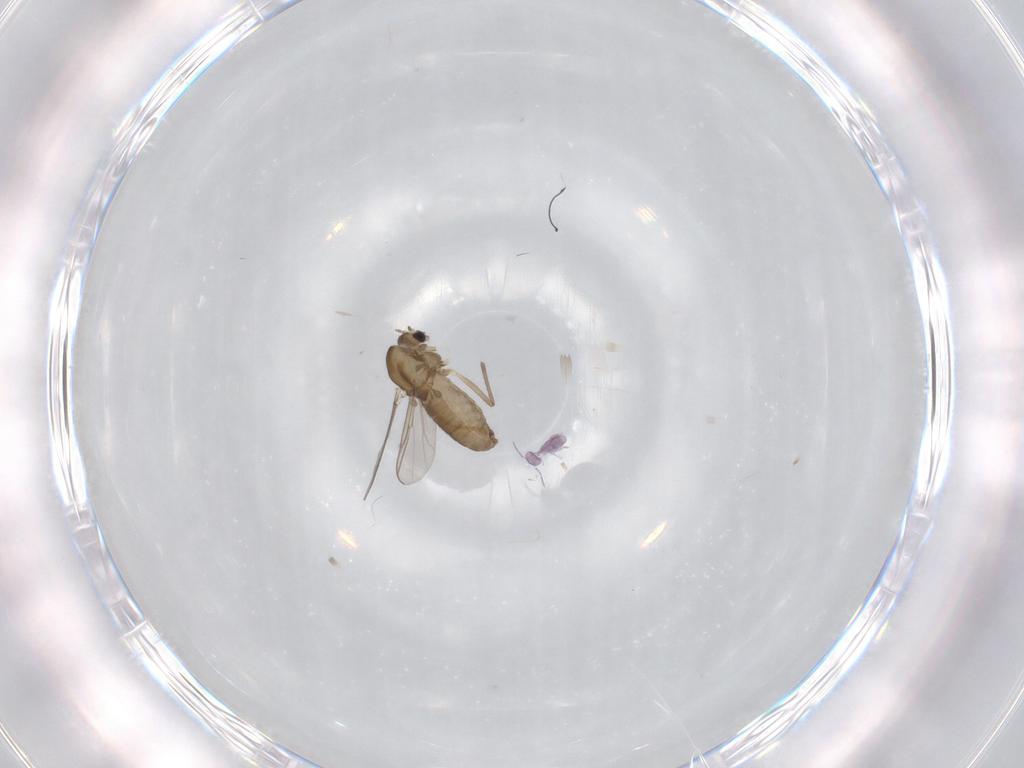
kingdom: Animalia
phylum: Arthropoda
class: Insecta
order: Diptera
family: Chironomidae
